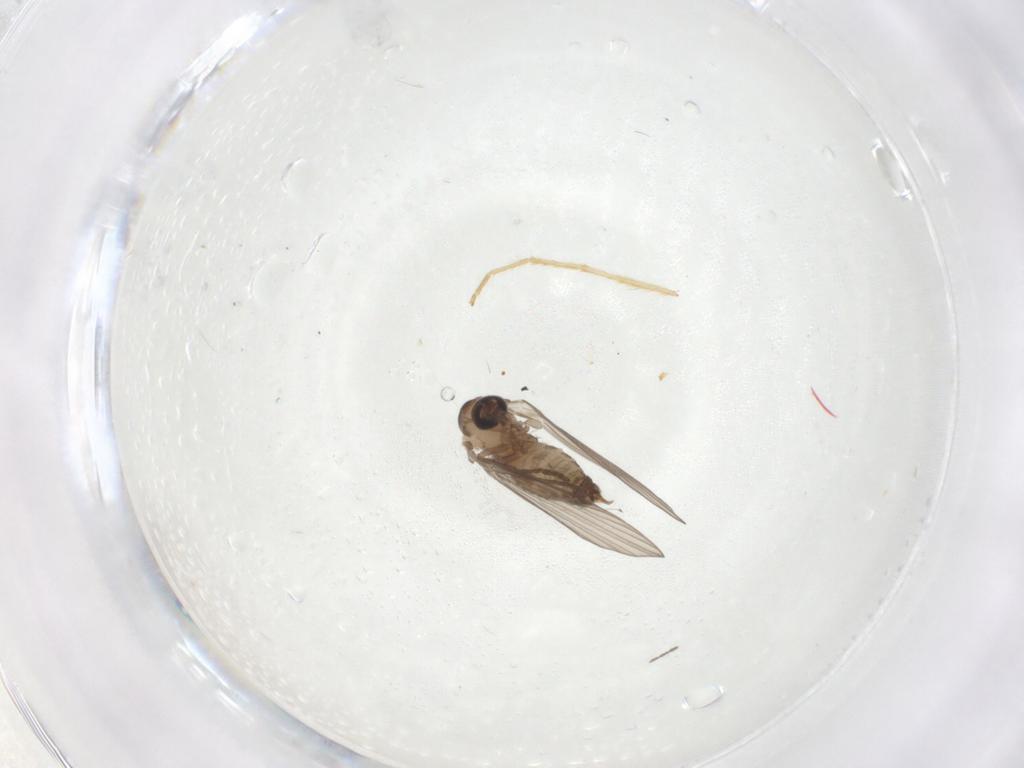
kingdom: Animalia
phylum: Arthropoda
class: Insecta
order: Diptera
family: Psychodidae
